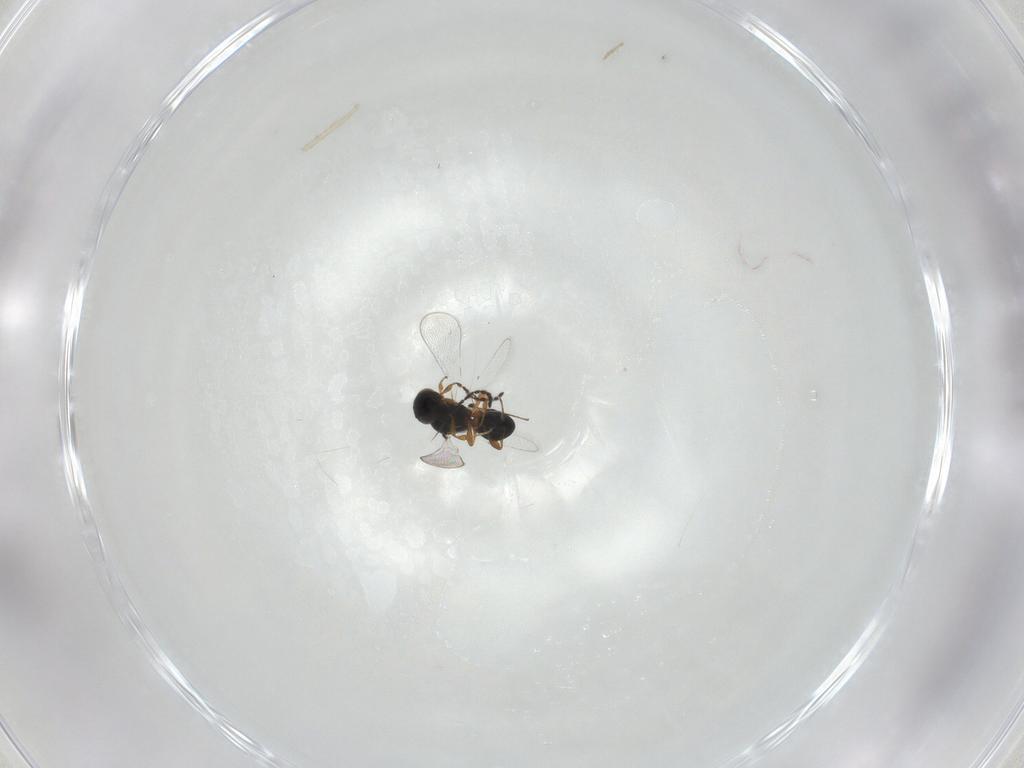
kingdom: Animalia
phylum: Arthropoda
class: Insecta
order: Hymenoptera
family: Platygastridae
